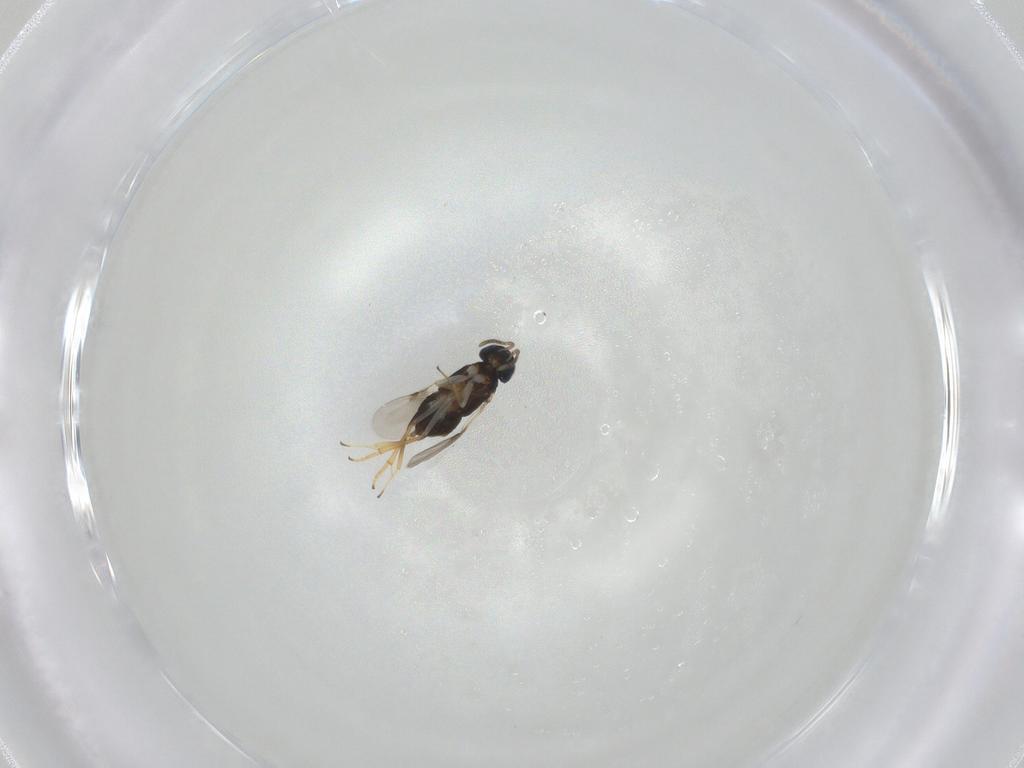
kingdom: Animalia
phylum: Arthropoda
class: Insecta
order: Hymenoptera
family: Encyrtidae
